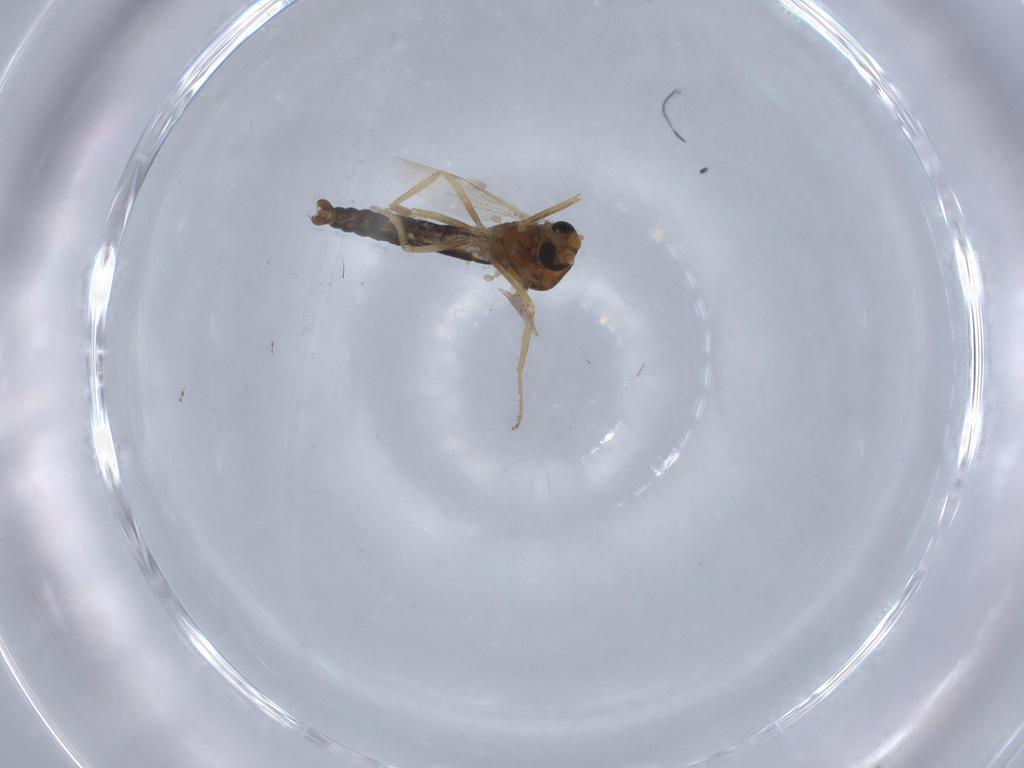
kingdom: Animalia
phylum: Arthropoda
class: Insecta
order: Diptera
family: Ceratopogonidae
